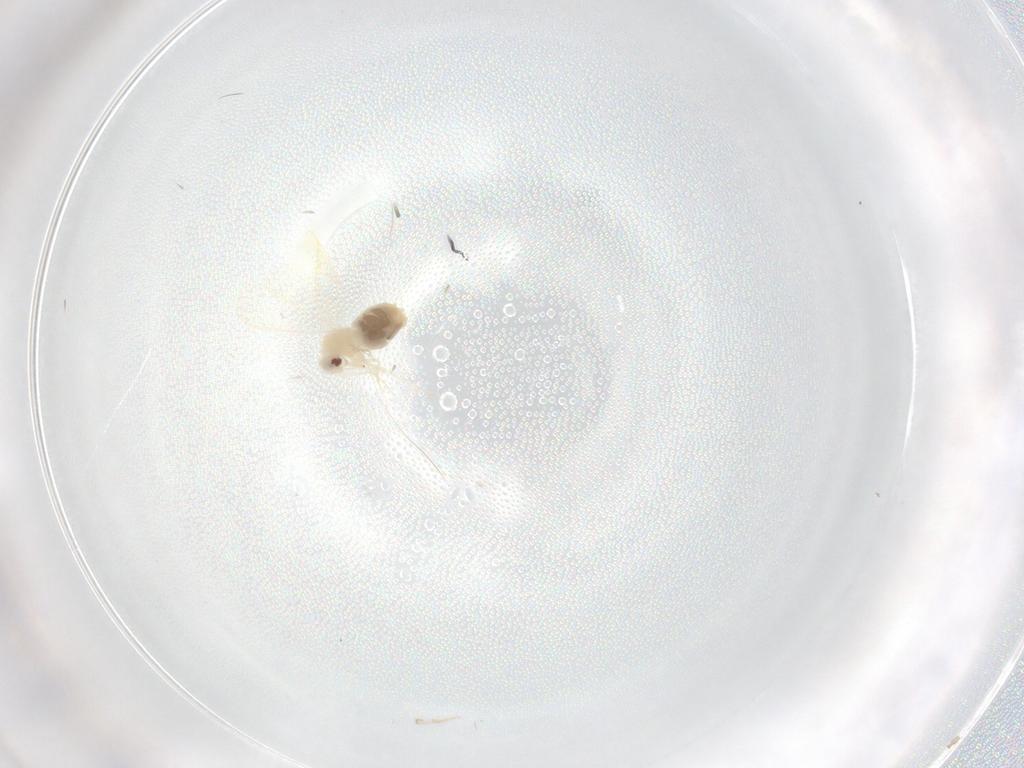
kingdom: Animalia
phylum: Arthropoda
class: Insecta
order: Hemiptera
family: Aleyrodidae
